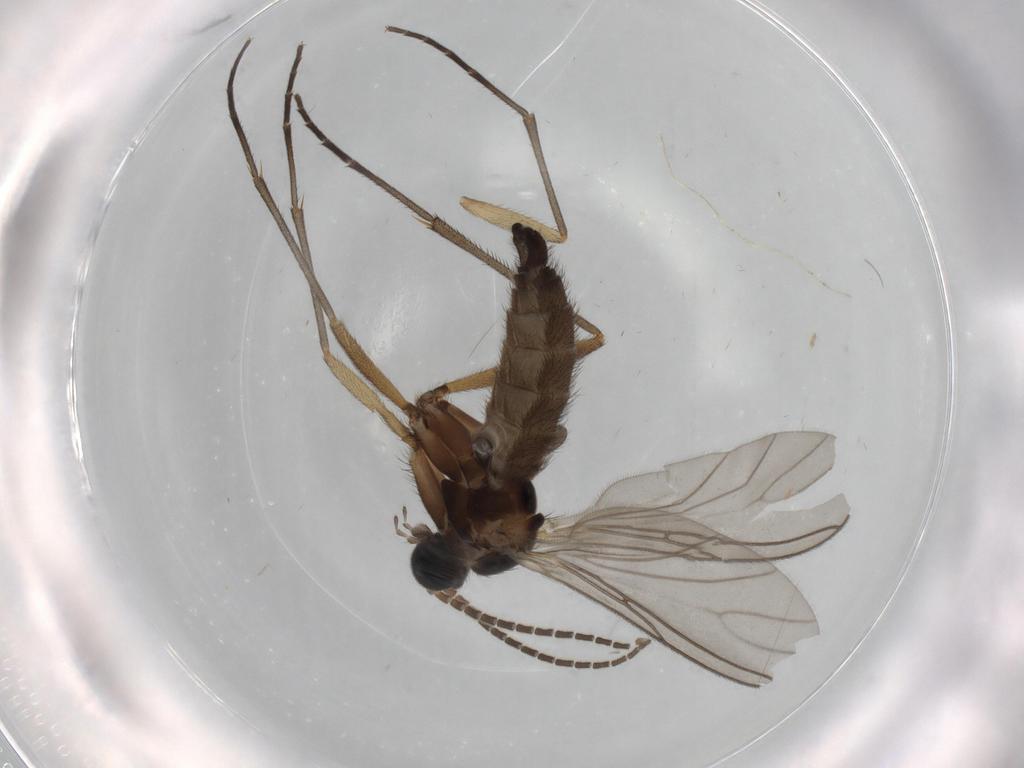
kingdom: Animalia
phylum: Arthropoda
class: Insecta
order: Diptera
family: Sciaridae
